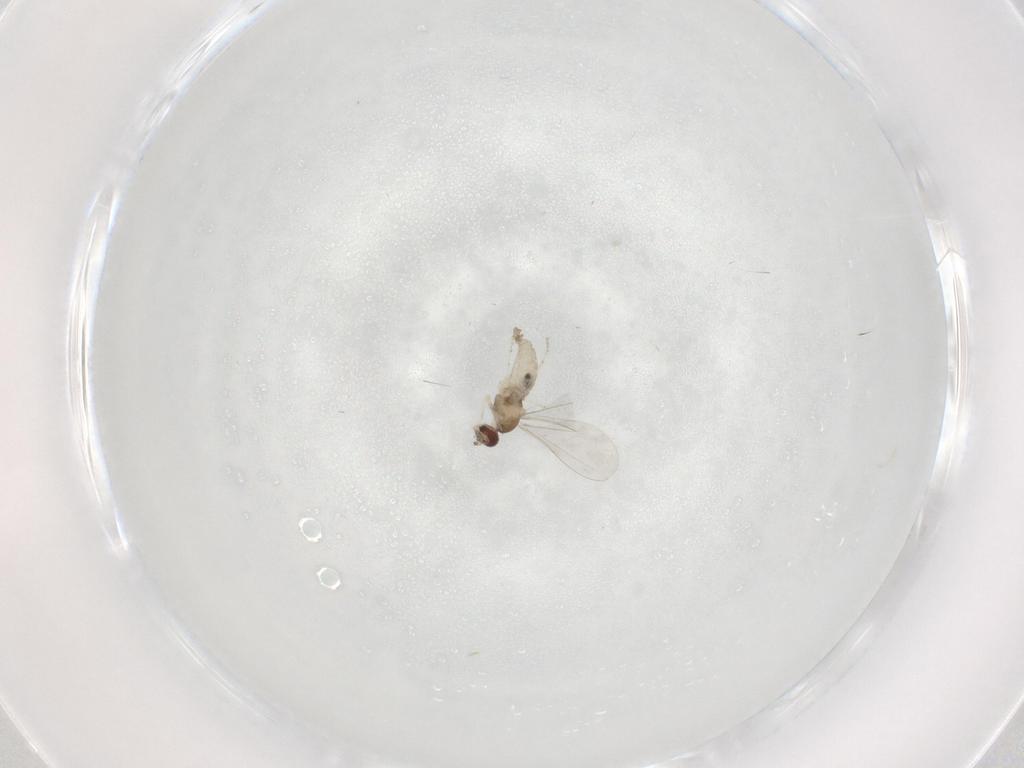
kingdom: Animalia
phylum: Arthropoda
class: Insecta
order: Diptera
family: Cecidomyiidae
